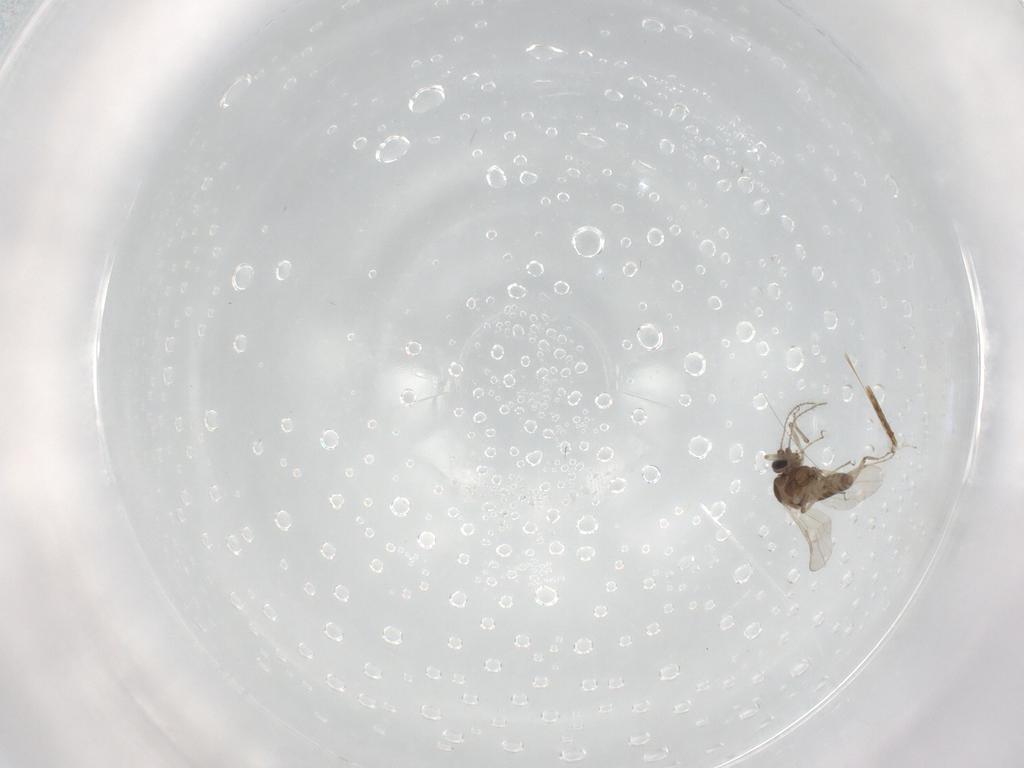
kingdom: Animalia
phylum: Arthropoda
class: Insecta
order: Diptera
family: Ceratopogonidae
